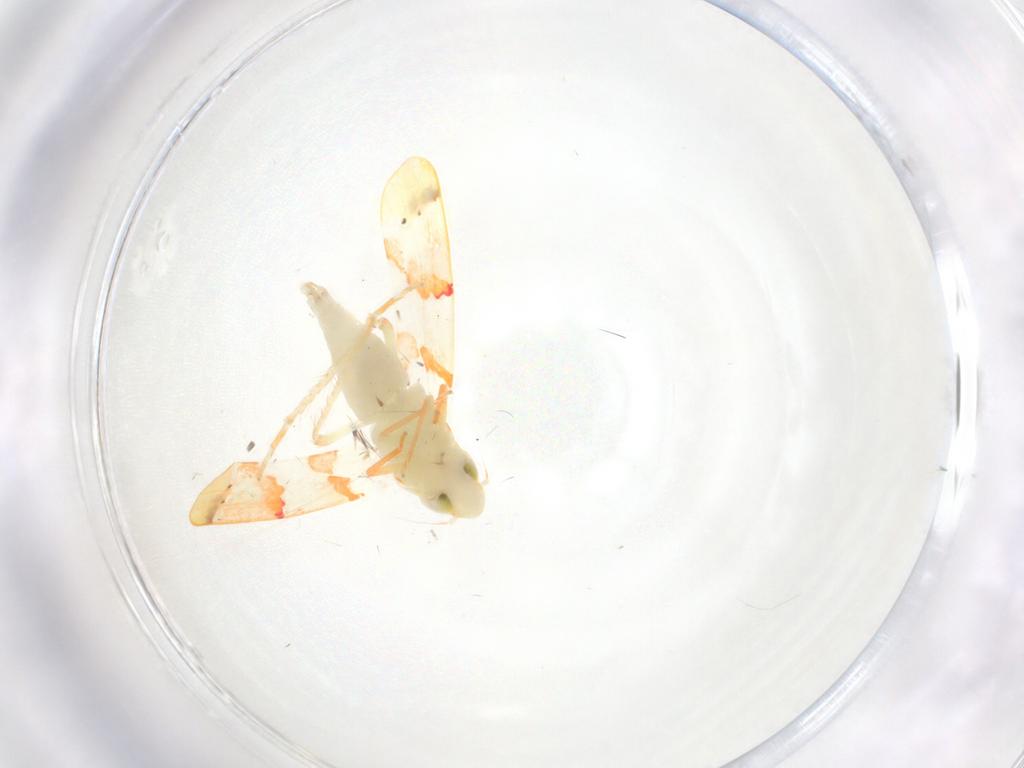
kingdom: Animalia
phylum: Arthropoda
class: Insecta
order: Hemiptera
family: Cicadellidae
